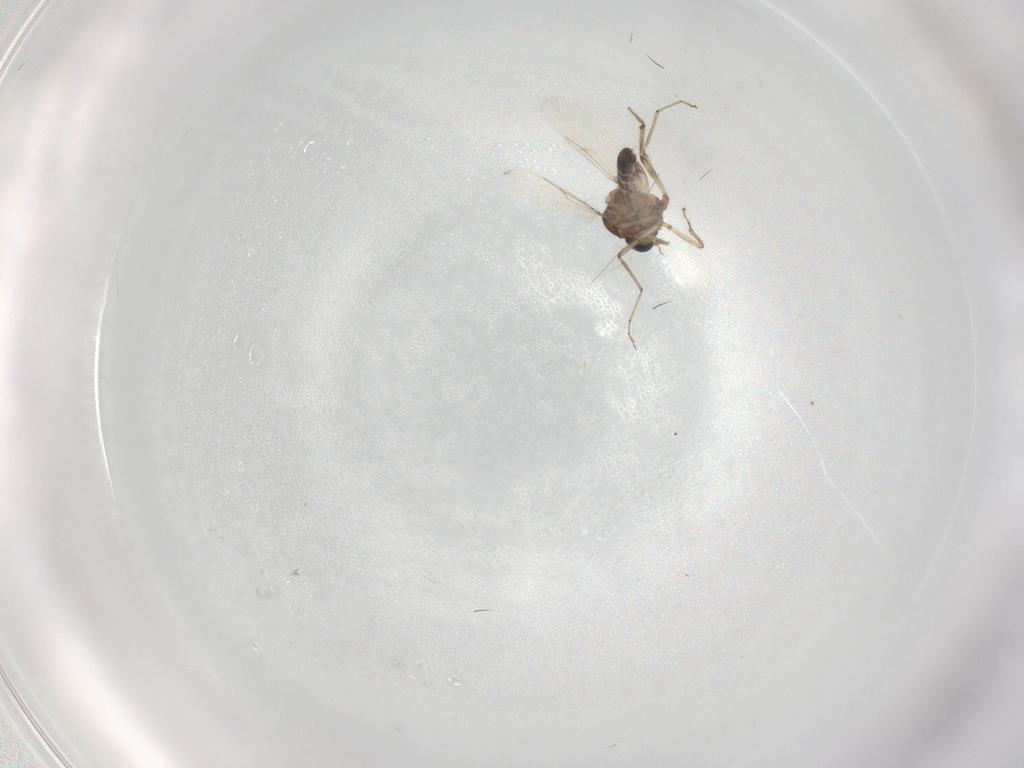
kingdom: Animalia
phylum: Arthropoda
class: Insecta
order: Diptera
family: Ceratopogonidae
